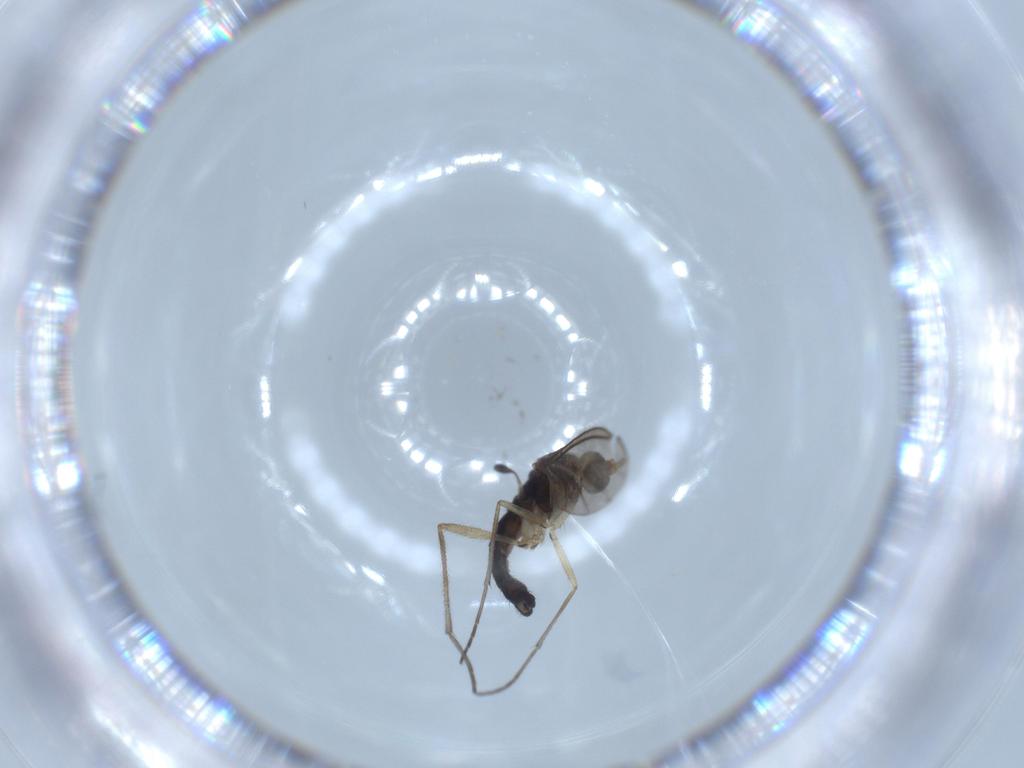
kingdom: Animalia
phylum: Arthropoda
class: Insecta
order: Diptera
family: Sciaridae
